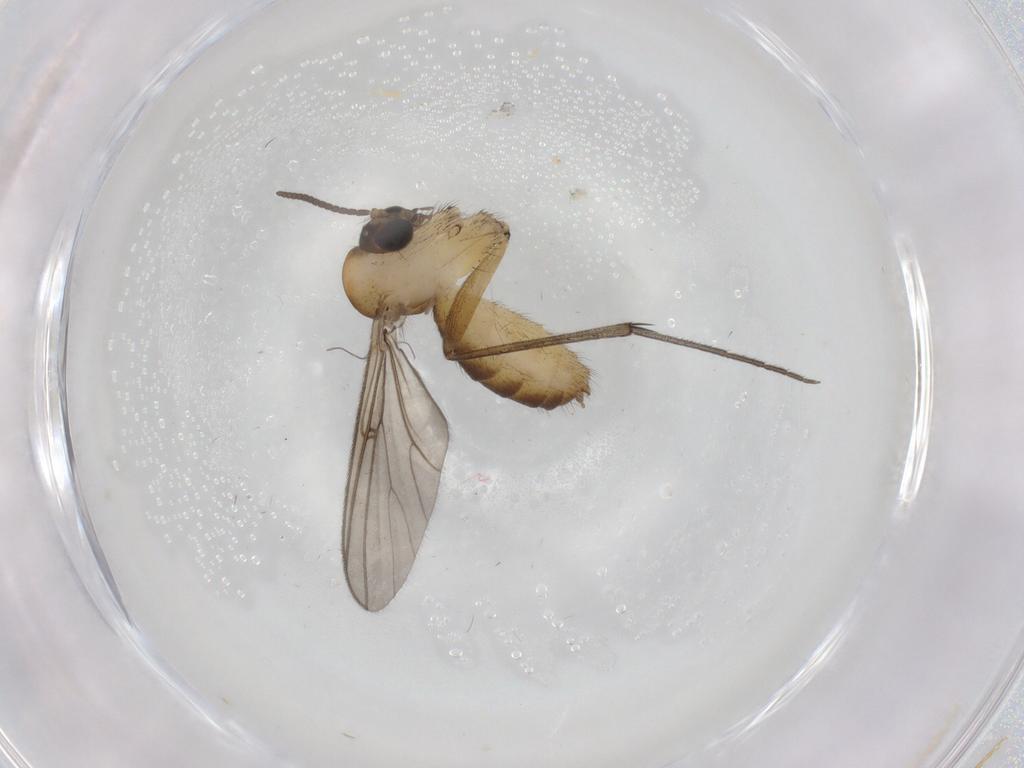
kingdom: Animalia
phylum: Arthropoda
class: Insecta
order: Diptera
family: Mycetophilidae
